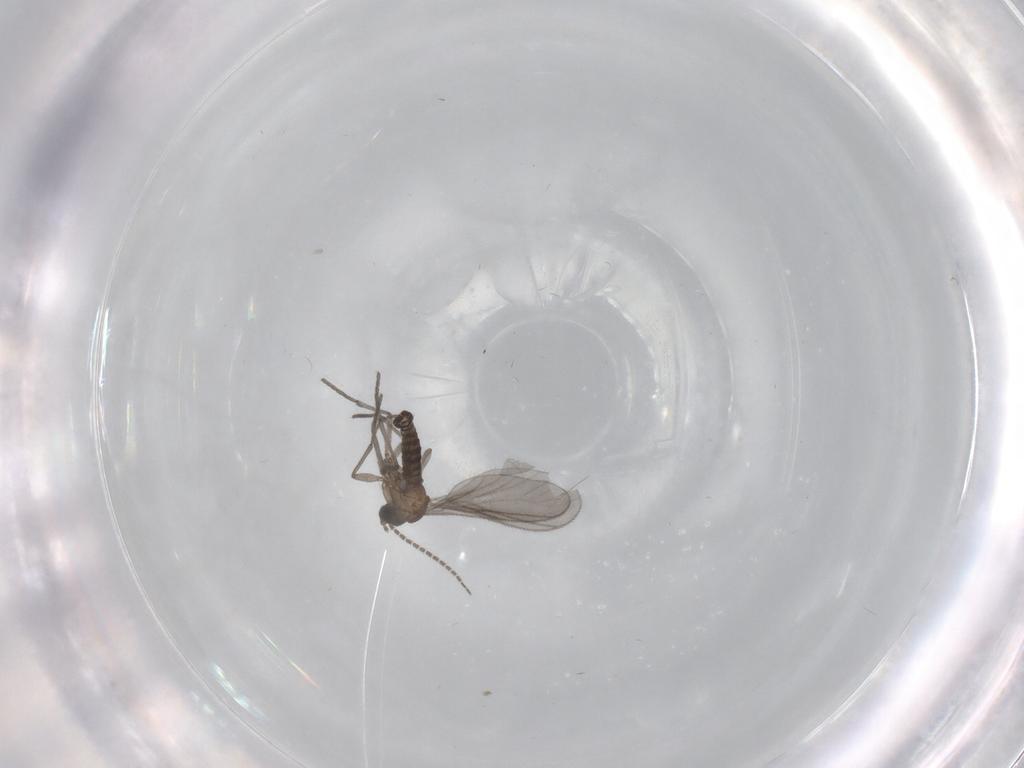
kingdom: Animalia
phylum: Arthropoda
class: Insecta
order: Diptera
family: Sciaridae
